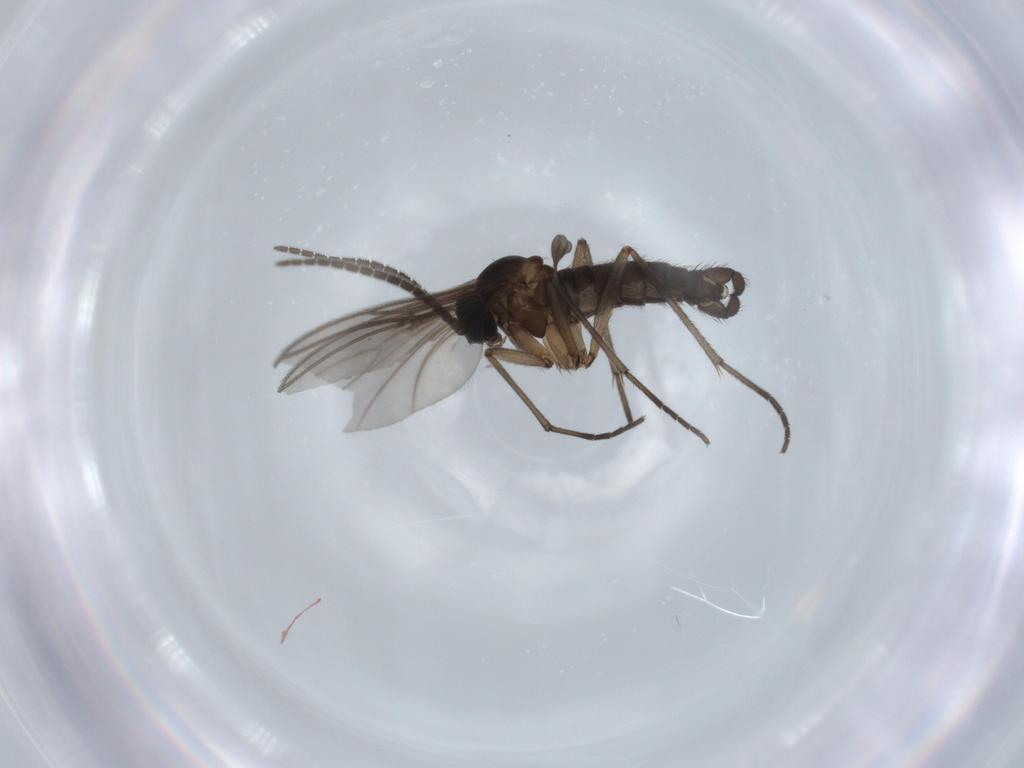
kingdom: Animalia
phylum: Arthropoda
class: Insecta
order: Diptera
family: Sciaridae
